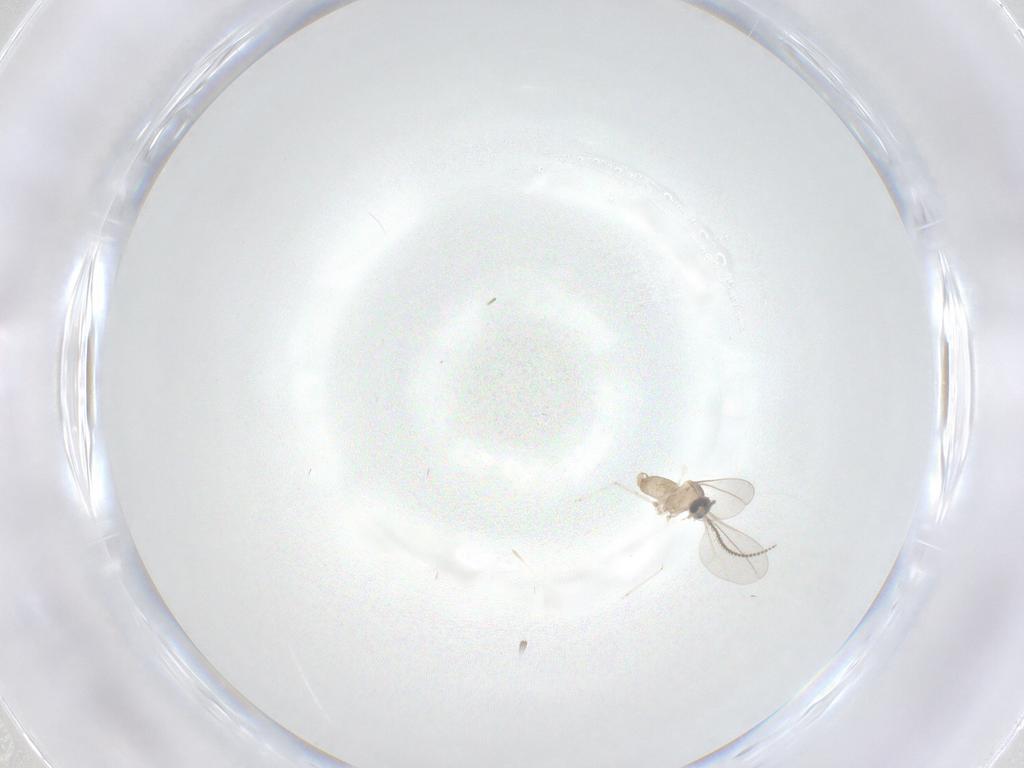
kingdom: Animalia
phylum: Arthropoda
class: Insecta
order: Diptera
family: Cecidomyiidae
